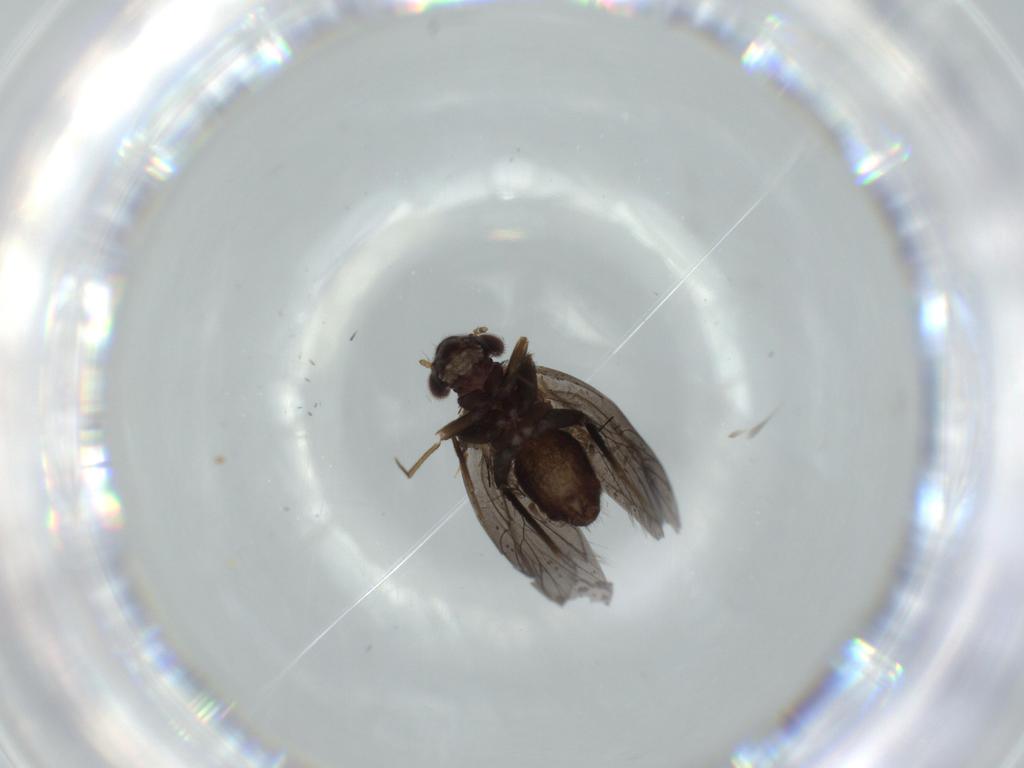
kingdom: Animalia
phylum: Arthropoda
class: Insecta
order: Psocodea
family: Lepidopsocidae
